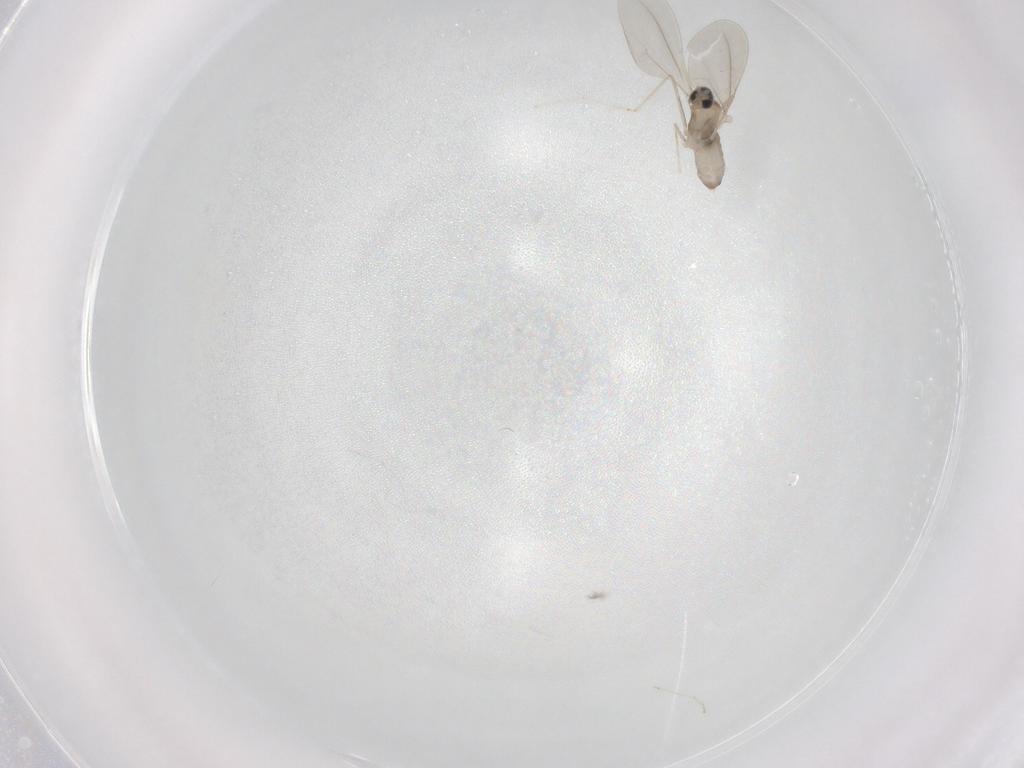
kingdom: Animalia
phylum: Arthropoda
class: Insecta
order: Diptera
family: Cecidomyiidae
